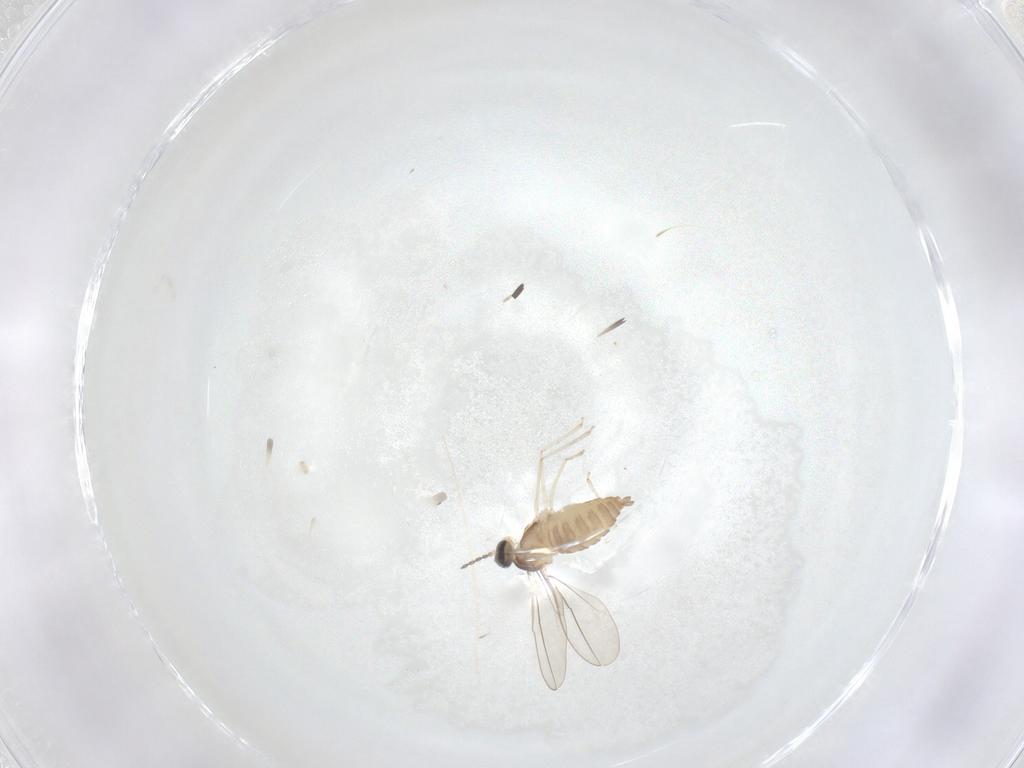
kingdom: Animalia
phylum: Arthropoda
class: Insecta
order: Diptera
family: Cecidomyiidae
